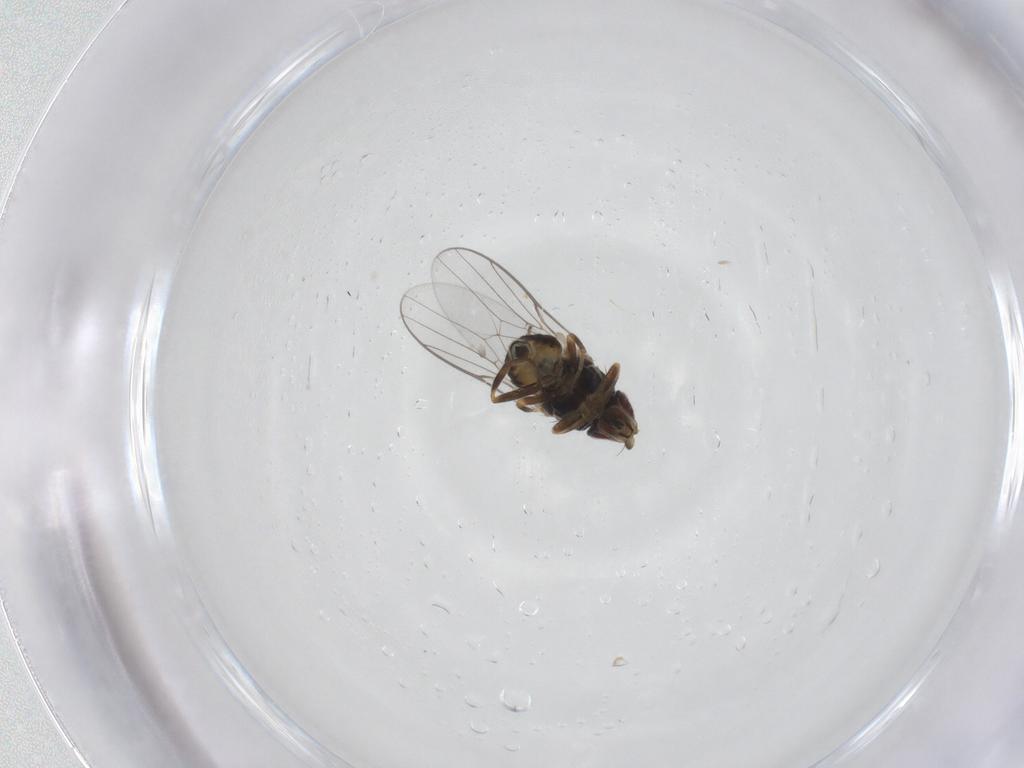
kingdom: Animalia
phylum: Arthropoda
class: Insecta
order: Diptera
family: Chloropidae
